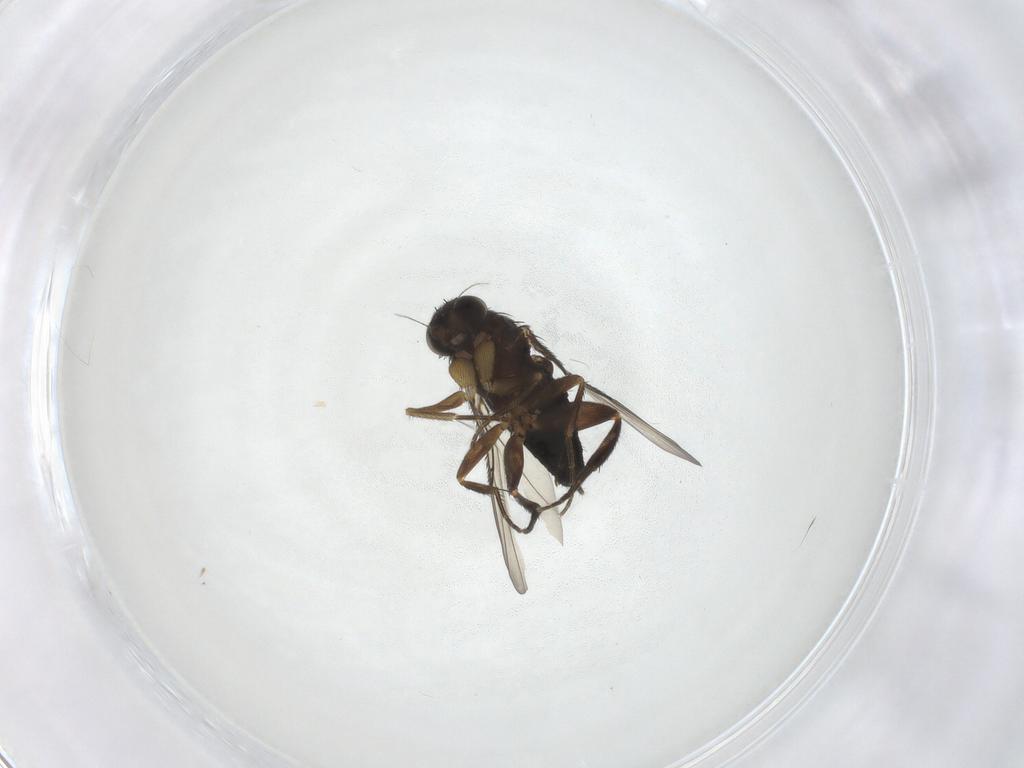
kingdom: Animalia
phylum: Arthropoda
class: Insecta
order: Diptera
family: Phoridae
